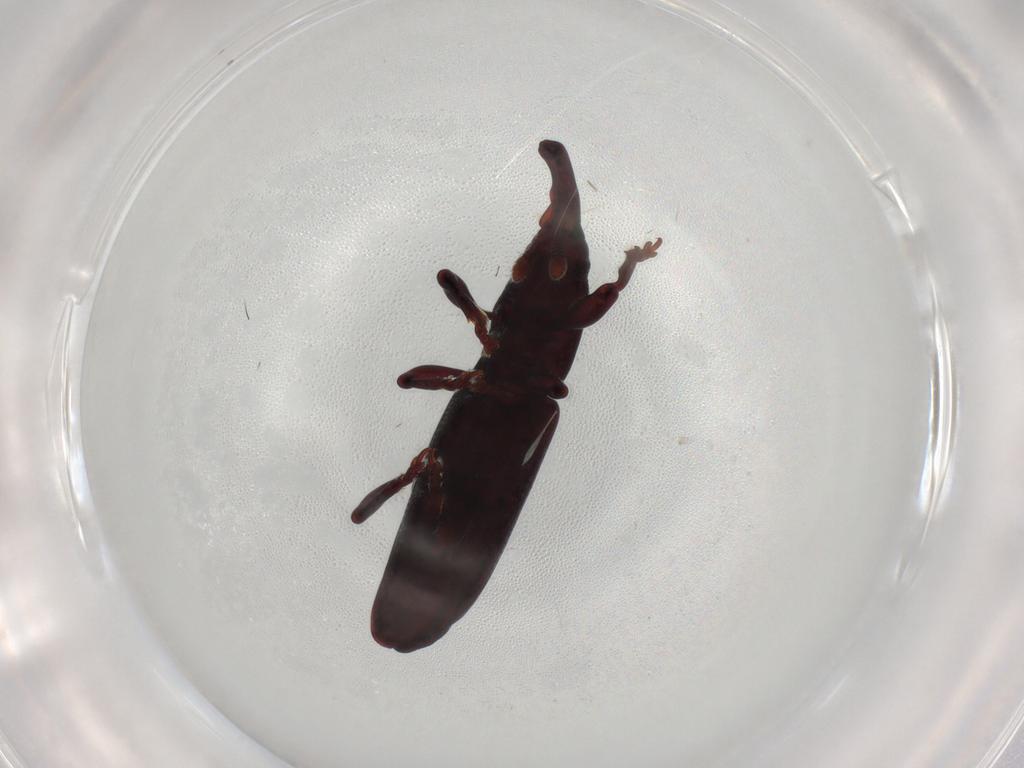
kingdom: Animalia
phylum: Arthropoda
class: Insecta
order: Coleoptera
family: Curculionidae
